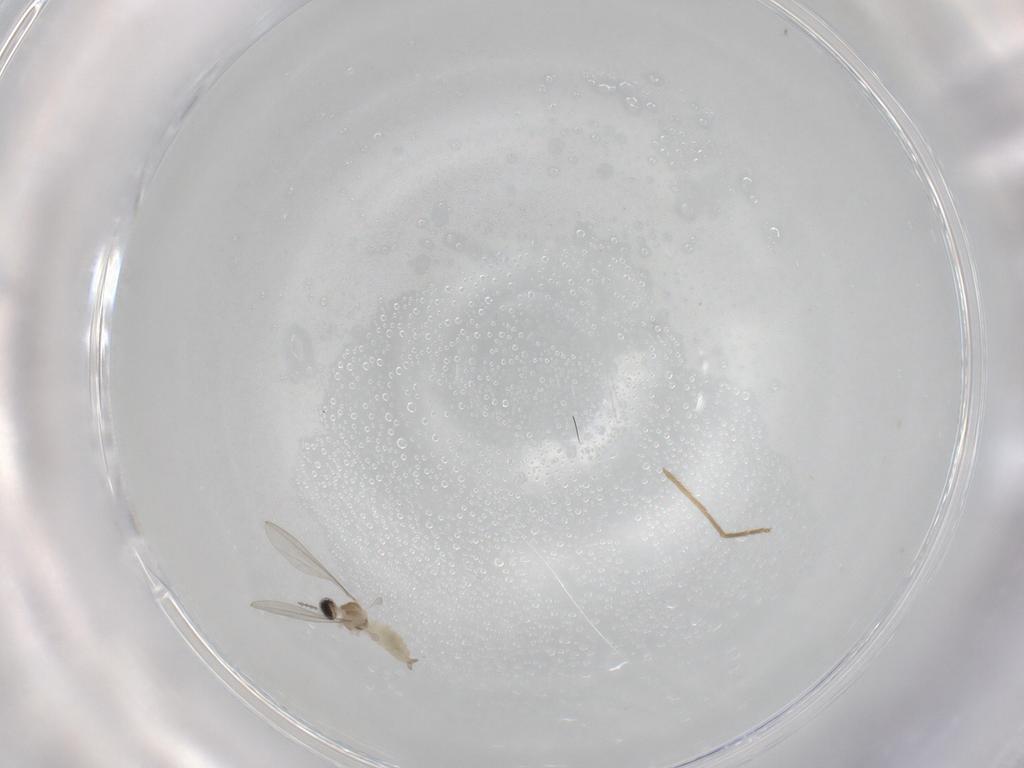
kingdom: Animalia
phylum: Arthropoda
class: Insecta
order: Diptera
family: Cecidomyiidae
